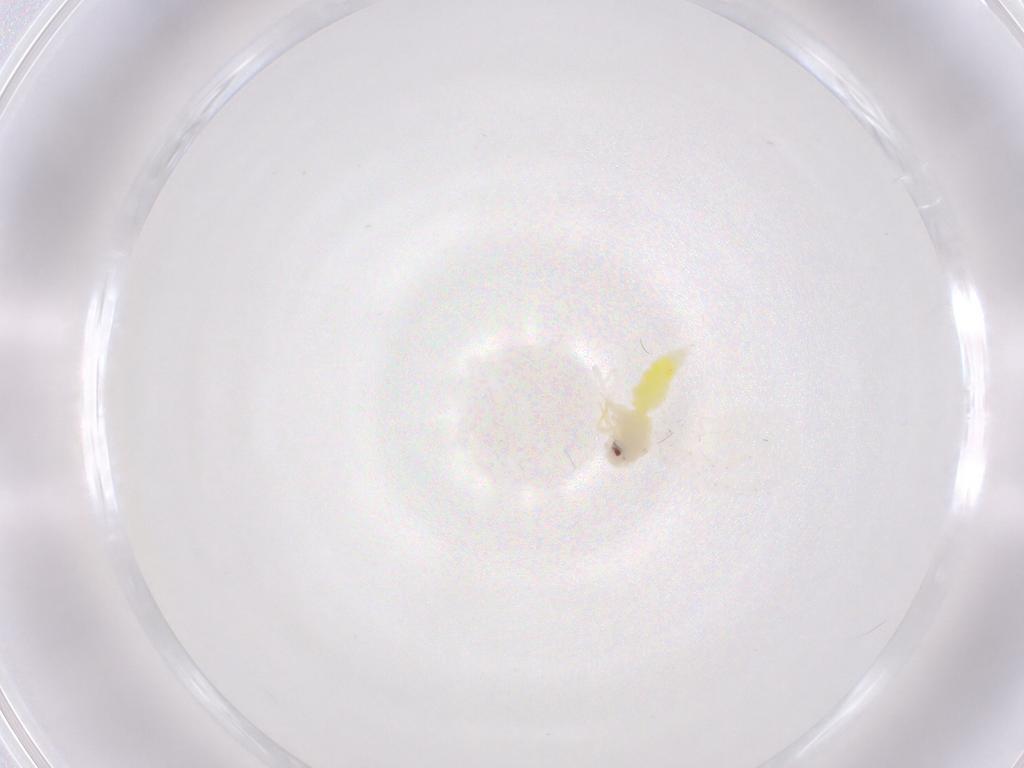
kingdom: Animalia
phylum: Arthropoda
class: Insecta
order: Hemiptera
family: Aleyrodidae
